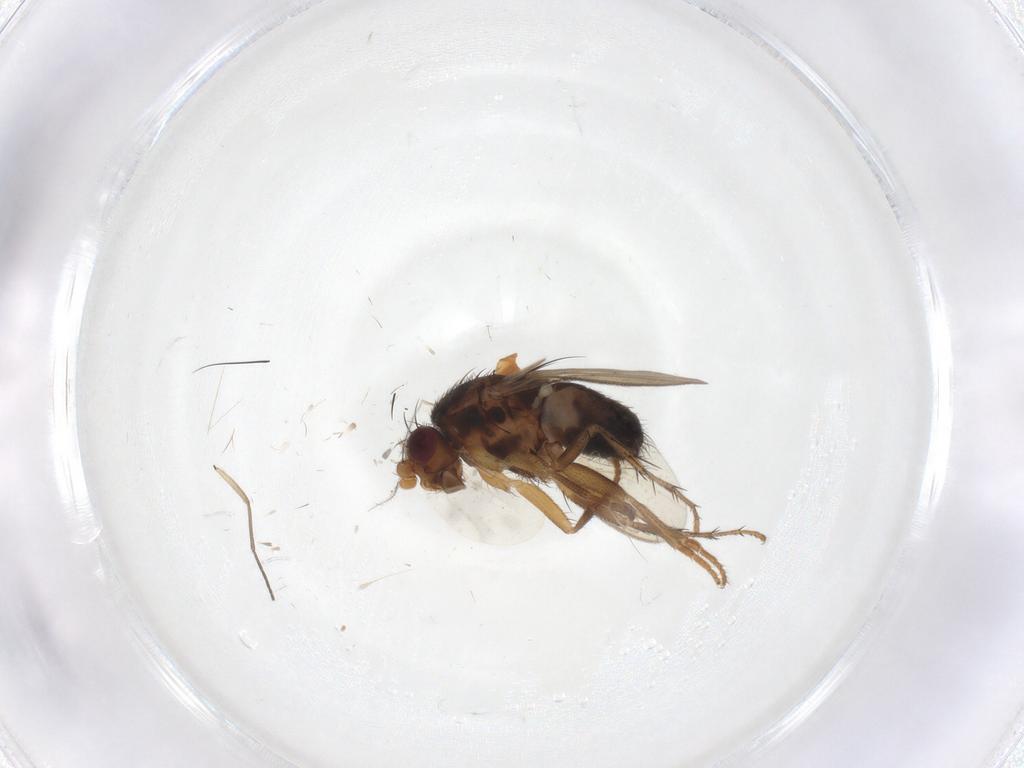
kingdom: Animalia
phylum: Arthropoda
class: Insecta
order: Diptera
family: Sphaeroceridae
